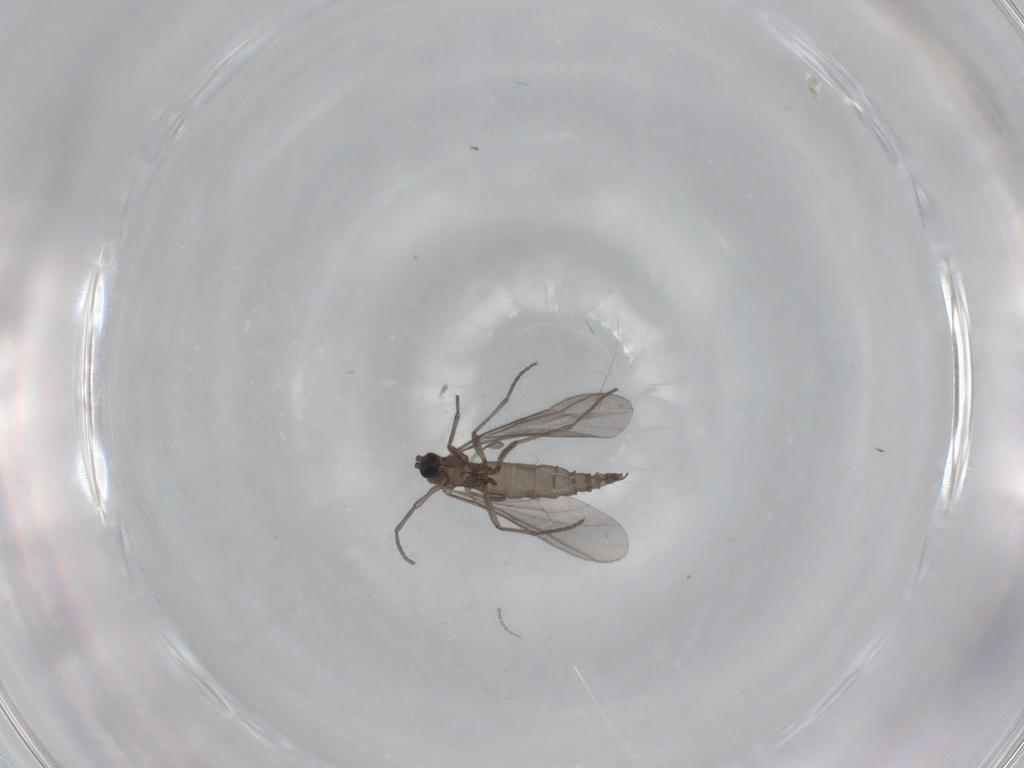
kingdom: Animalia
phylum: Arthropoda
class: Insecta
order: Diptera
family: Sciaridae
